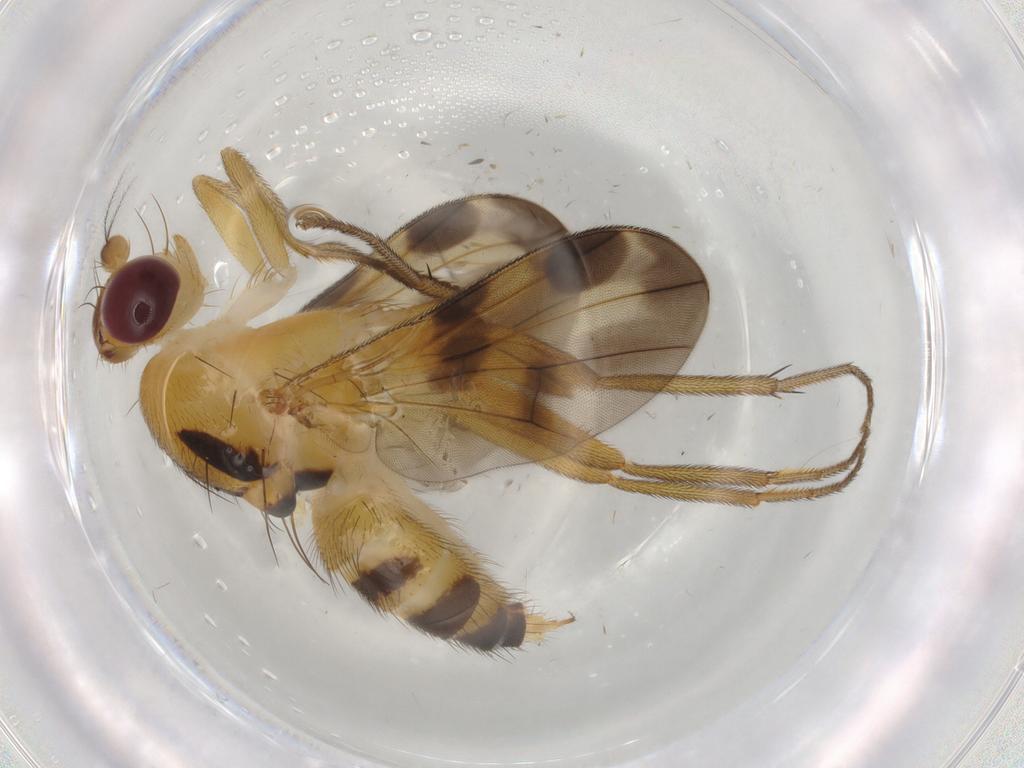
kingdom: Animalia
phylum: Arthropoda
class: Insecta
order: Diptera
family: Clusiidae
